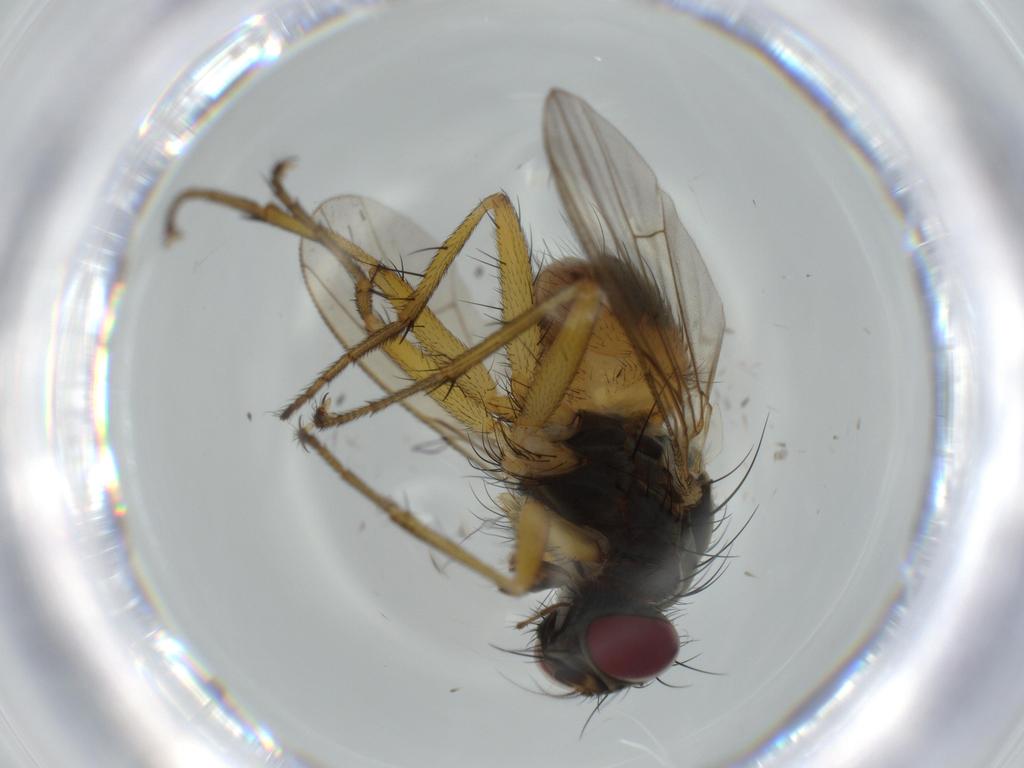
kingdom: Animalia
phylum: Arthropoda
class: Insecta
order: Diptera
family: Muscidae
